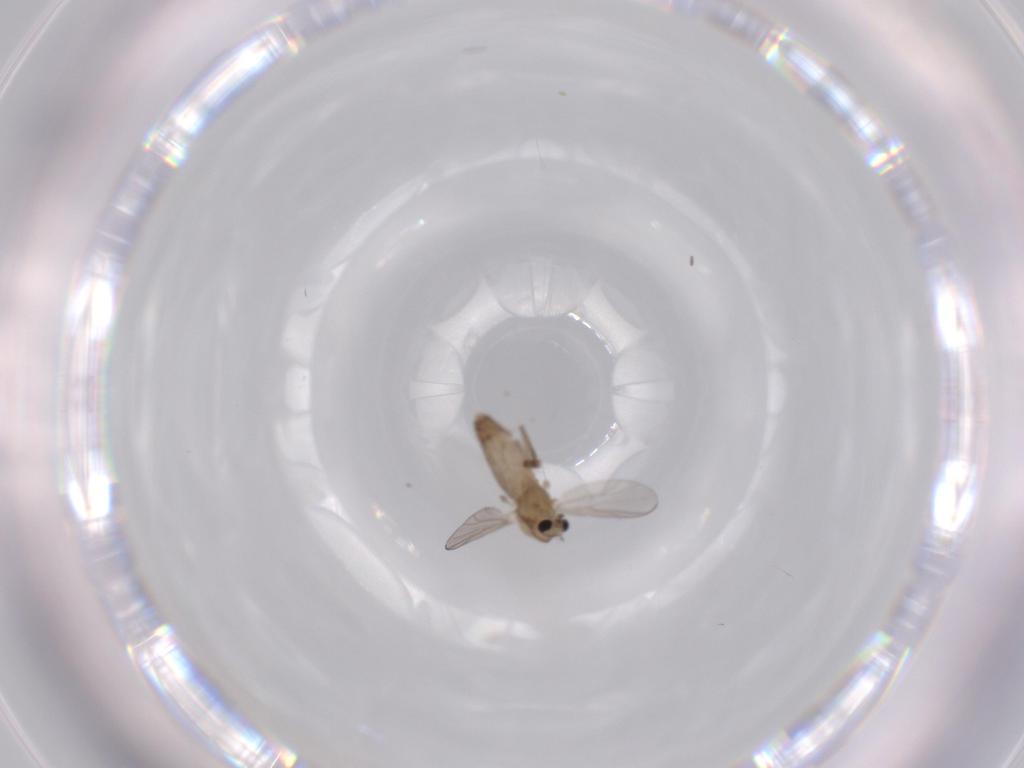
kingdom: Animalia
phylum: Arthropoda
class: Insecta
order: Diptera
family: Chironomidae
